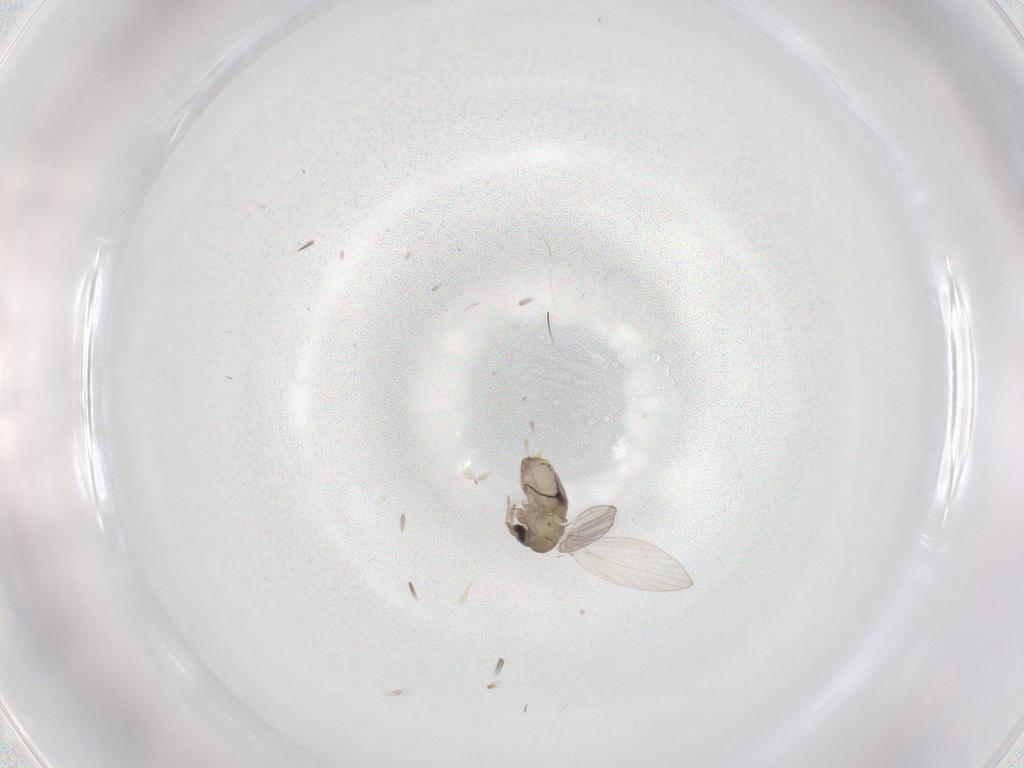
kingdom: Animalia
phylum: Arthropoda
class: Insecta
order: Diptera
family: Psychodidae
